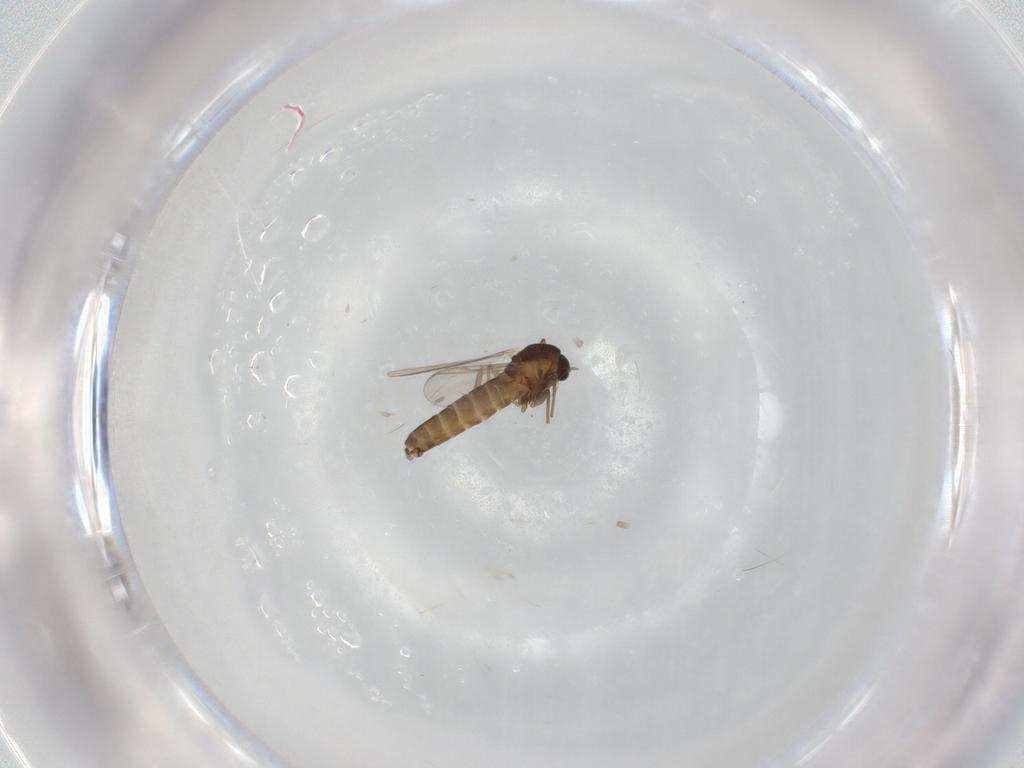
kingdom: Animalia
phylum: Arthropoda
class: Insecta
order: Diptera
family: Chironomidae
